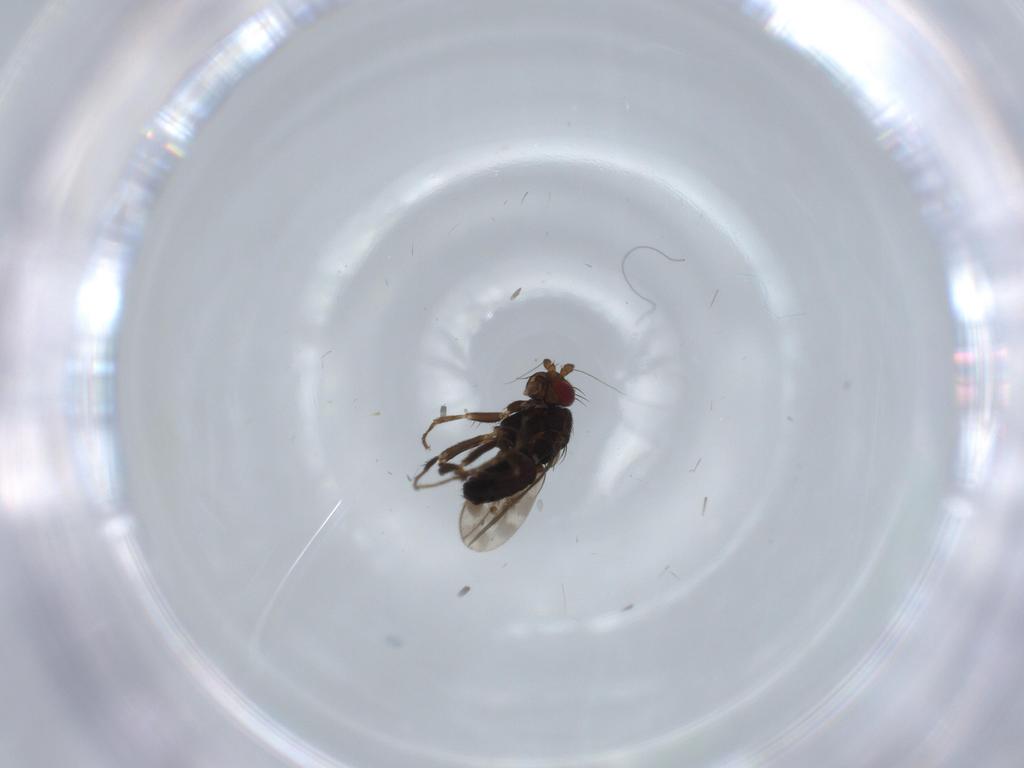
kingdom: Animalia
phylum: Arthropoda
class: Insecta
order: Diptera
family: Sphaeroceridae
